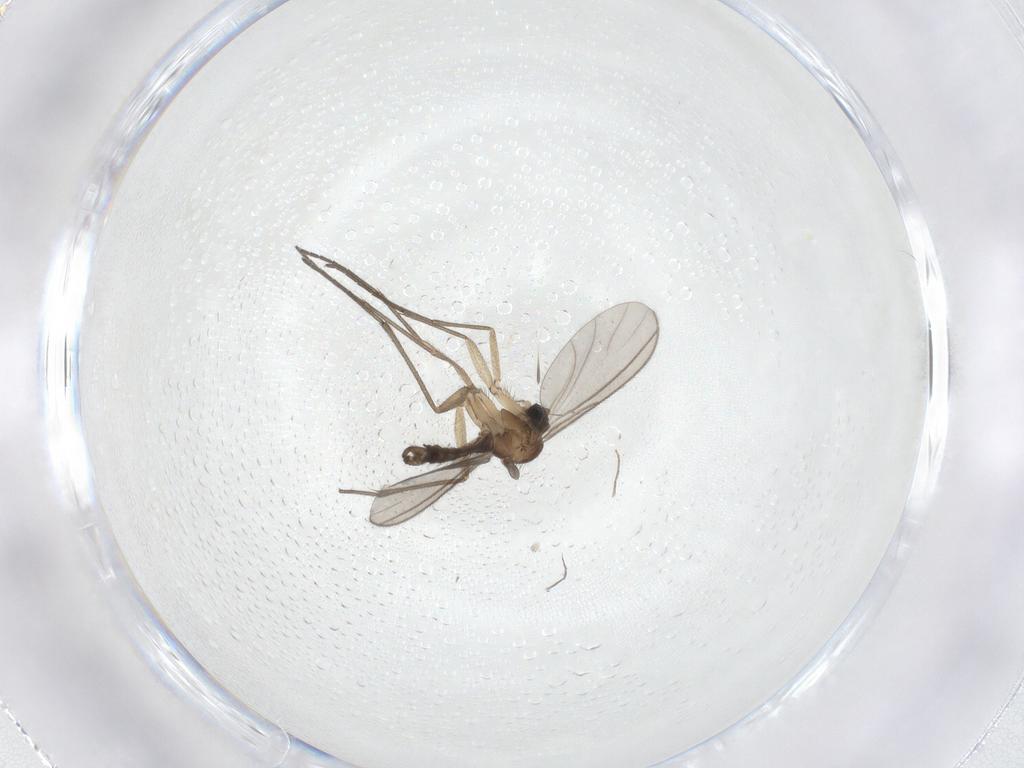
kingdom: Animalia
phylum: Arthropoda
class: Insecta
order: Diptera
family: Sciaridae
